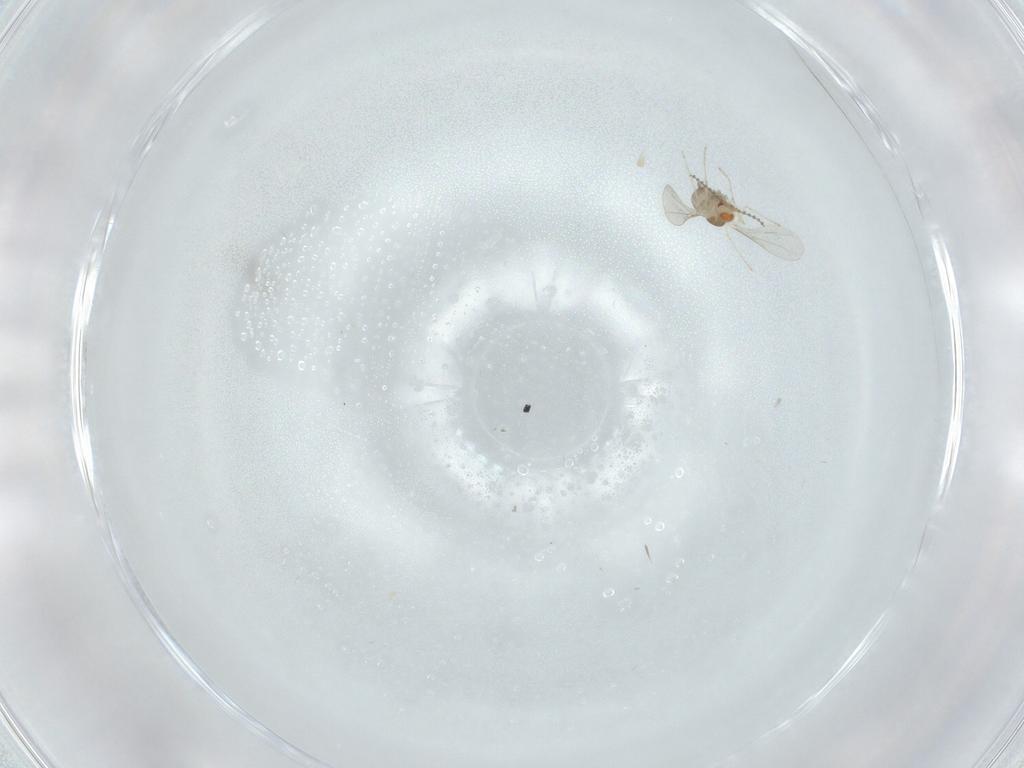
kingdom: Animalia
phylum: Arthropoda
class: Insecta
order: Diptera
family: Cecidomyiidae
